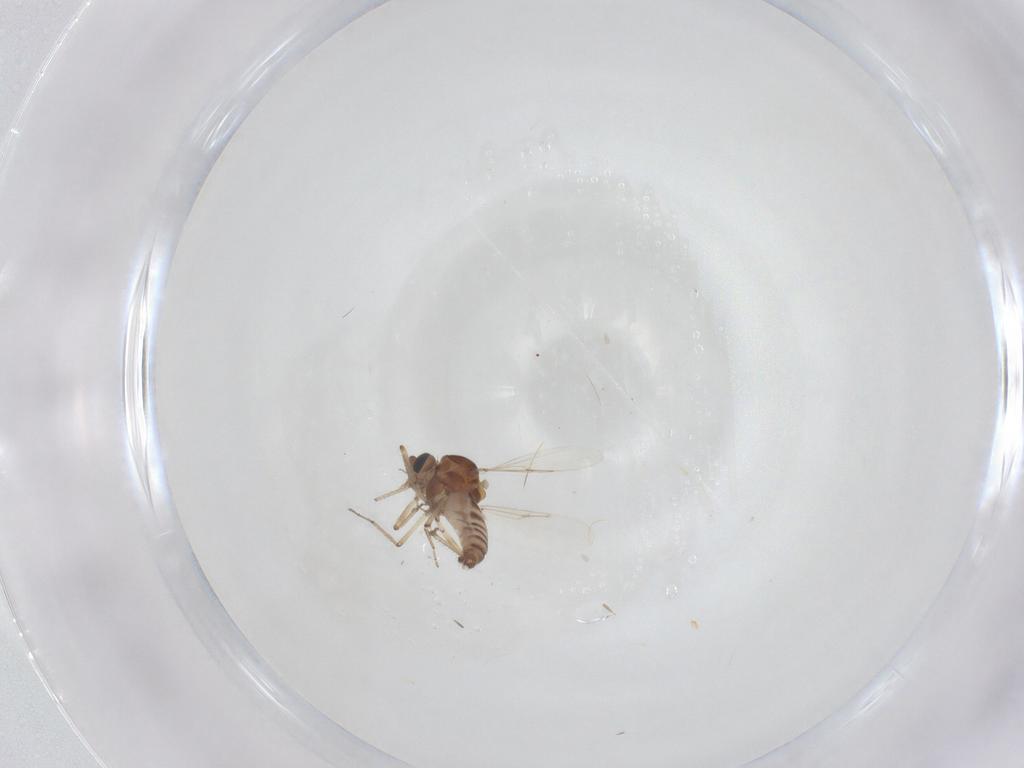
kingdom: Animalia
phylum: Arthropoda
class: Insecta
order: Diptera
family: Ceratopogonidae
